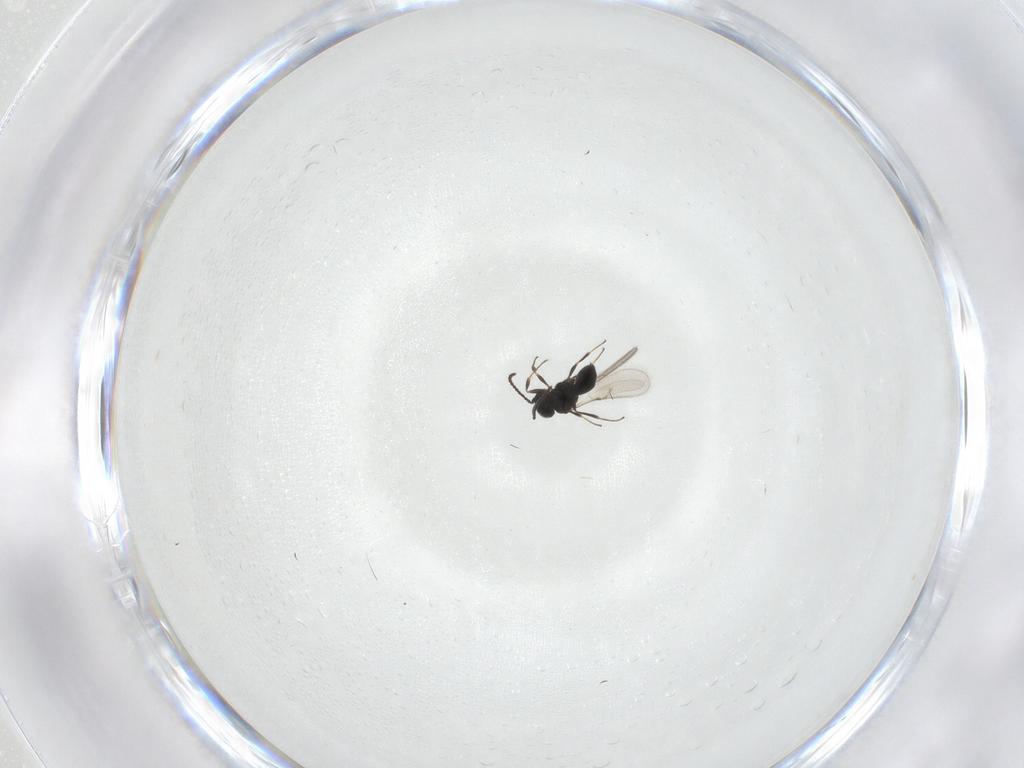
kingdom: Animalia
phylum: Arthropoda
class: Insecta
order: Hymenoptera
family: Scelionidae
